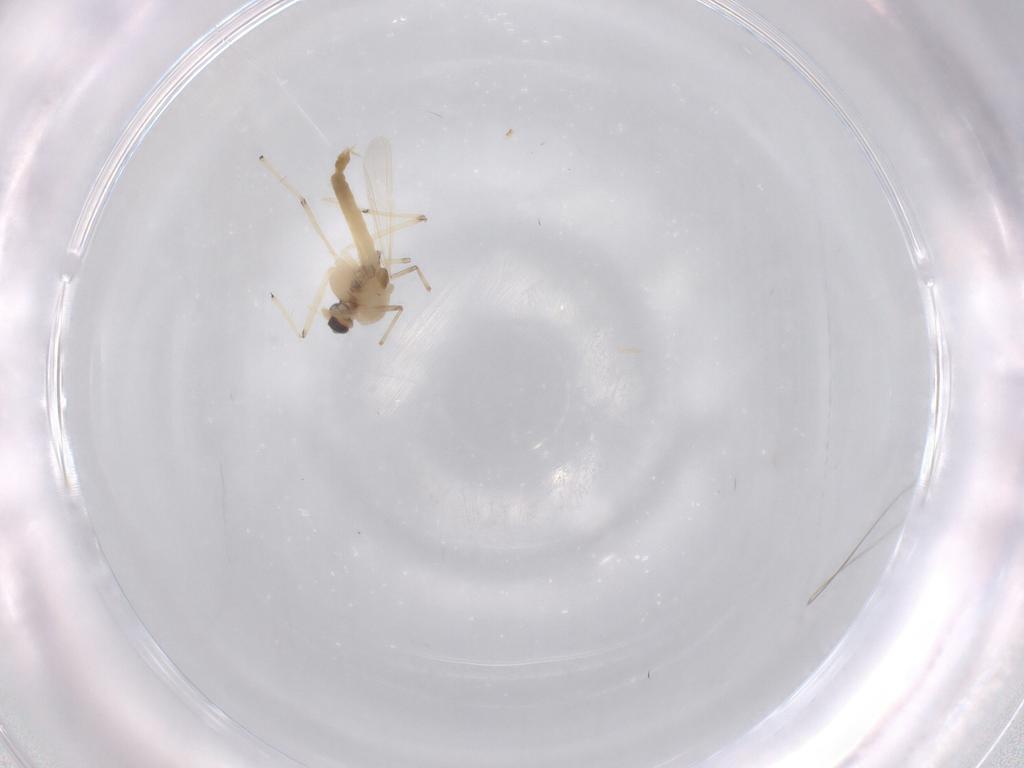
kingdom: Animalia
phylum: Arthropoda
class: Insecta
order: Diptera
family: Chironomidae
